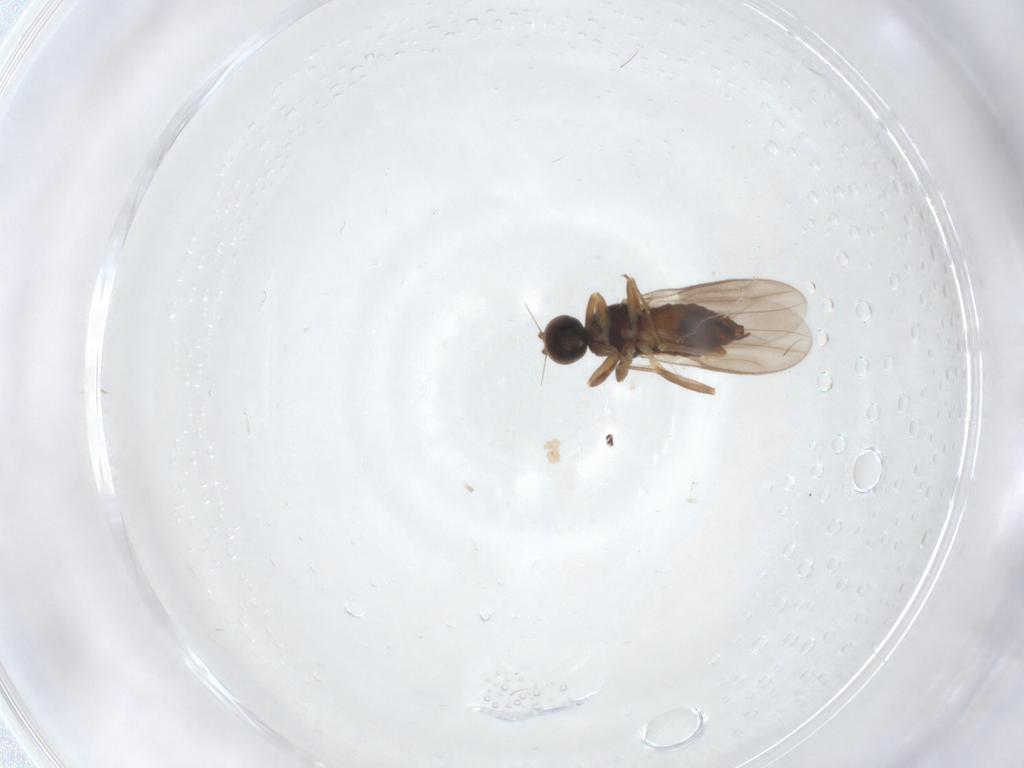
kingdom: Animalia
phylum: Arthropoda
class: Insecta
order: Diptera
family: Hybotidae
